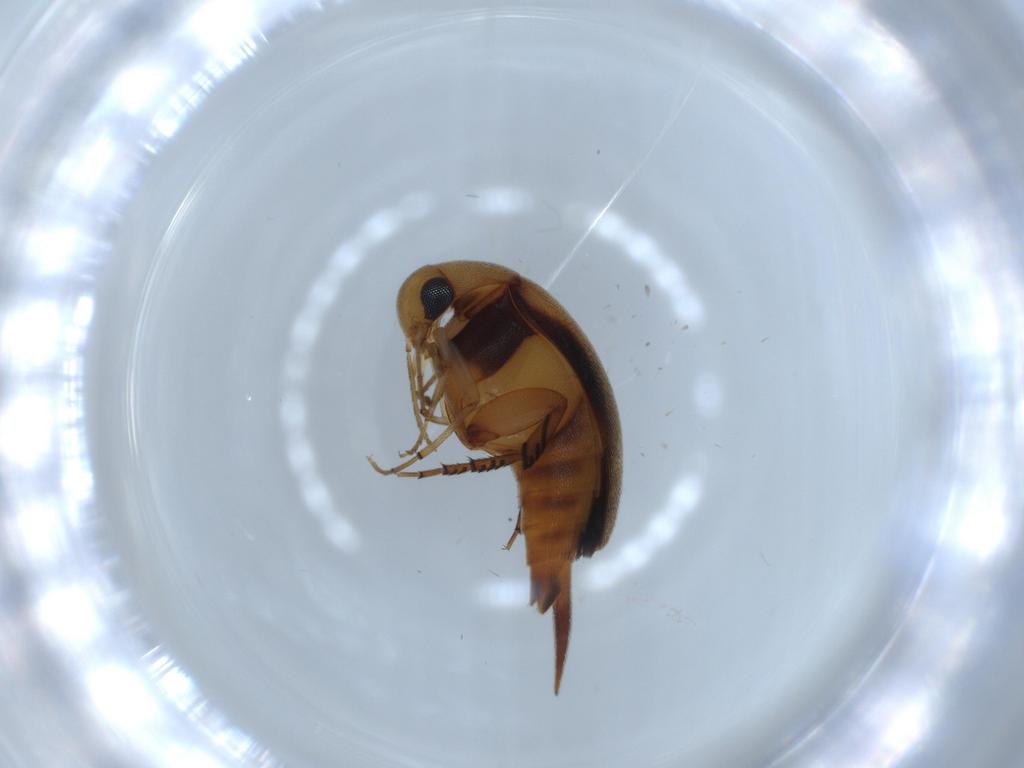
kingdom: Animalia
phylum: Arthropoda
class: Insecta
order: Coleoptera
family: Mordellidae
